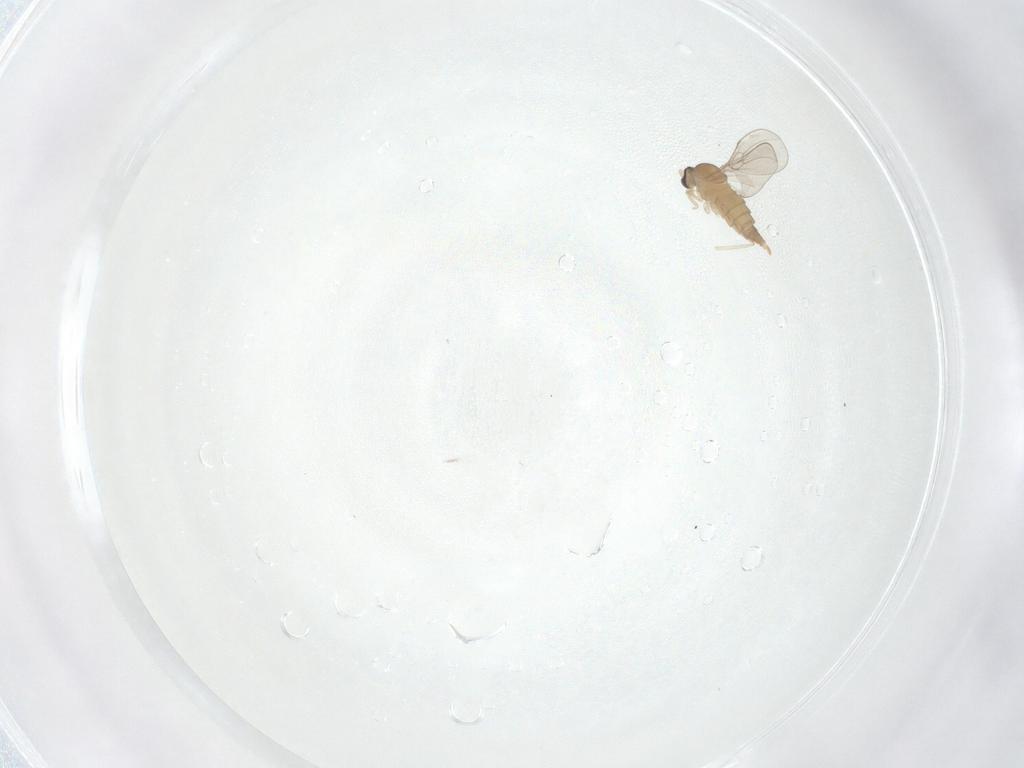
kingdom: Animalia
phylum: Arthropoda
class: Insecta
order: Diptera
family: Cecidomyiidae
